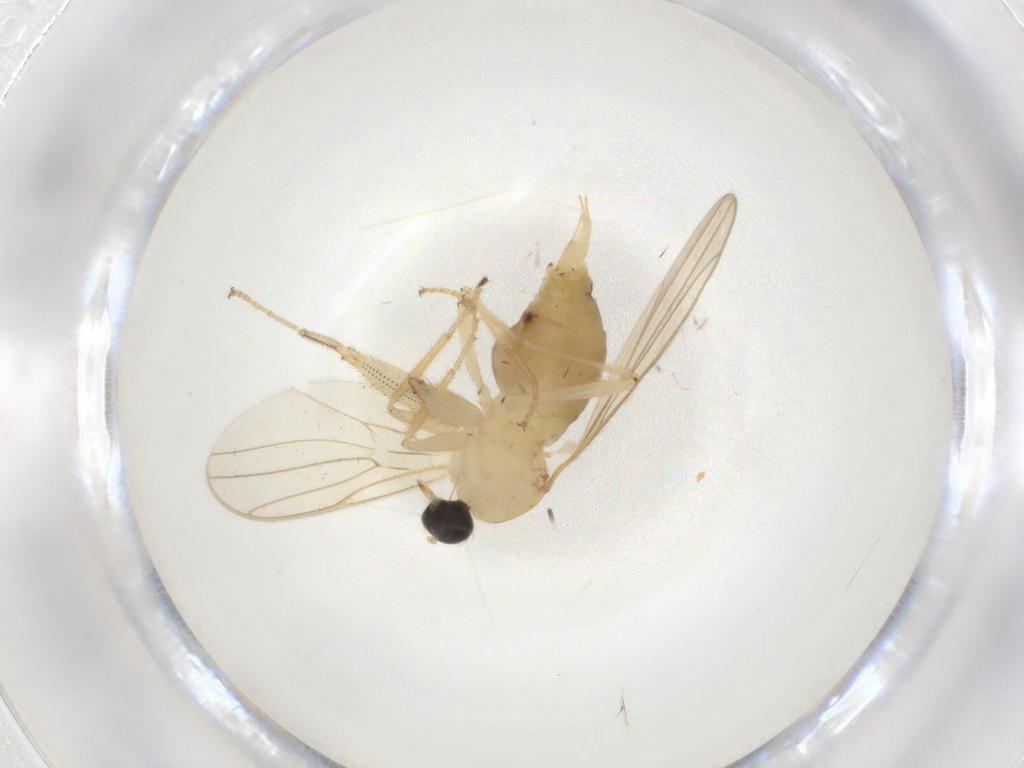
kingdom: Animalia
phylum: Arthropoda
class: Insecta
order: Diptera
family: Hybotidae
